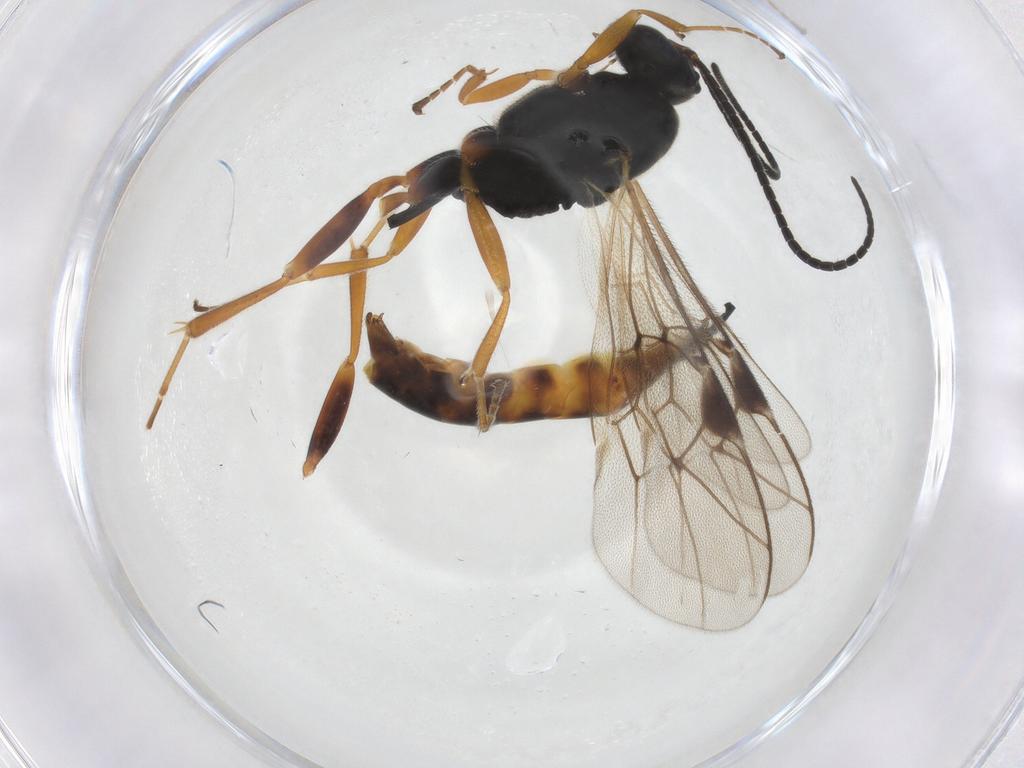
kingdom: Animalia
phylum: Arthropoda
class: Insecta
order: Hymenoptera
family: Ichneumonidae
